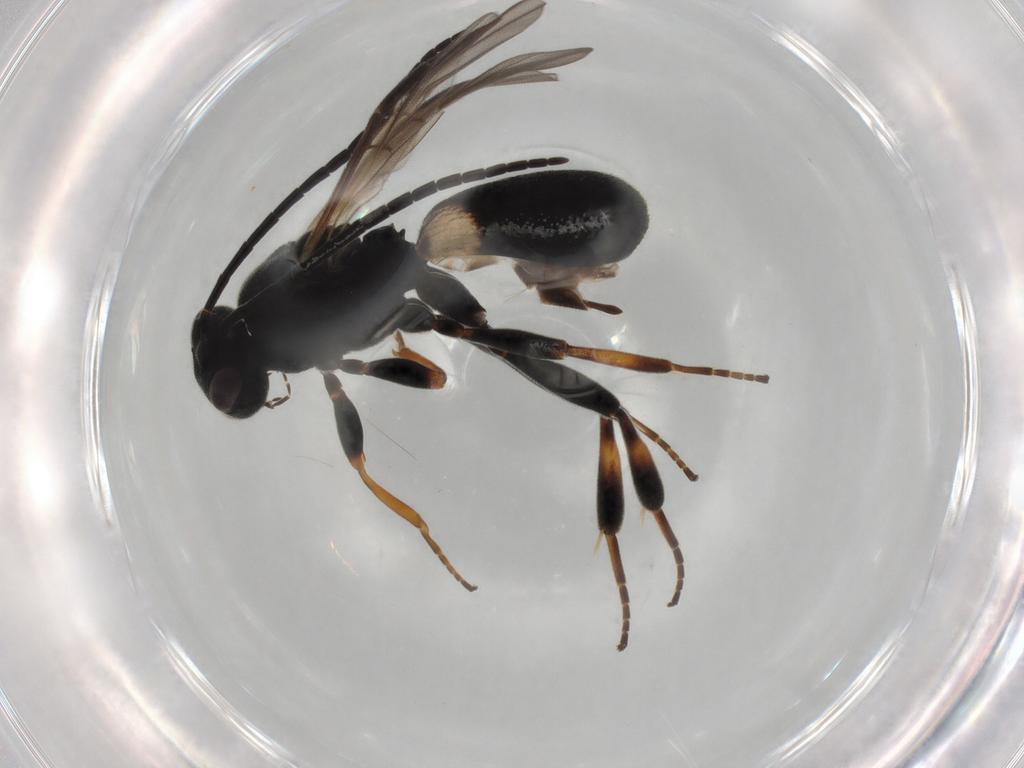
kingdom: Animalia
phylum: Arthropoda
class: Insecta
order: Hymenoptera
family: Braconidae
